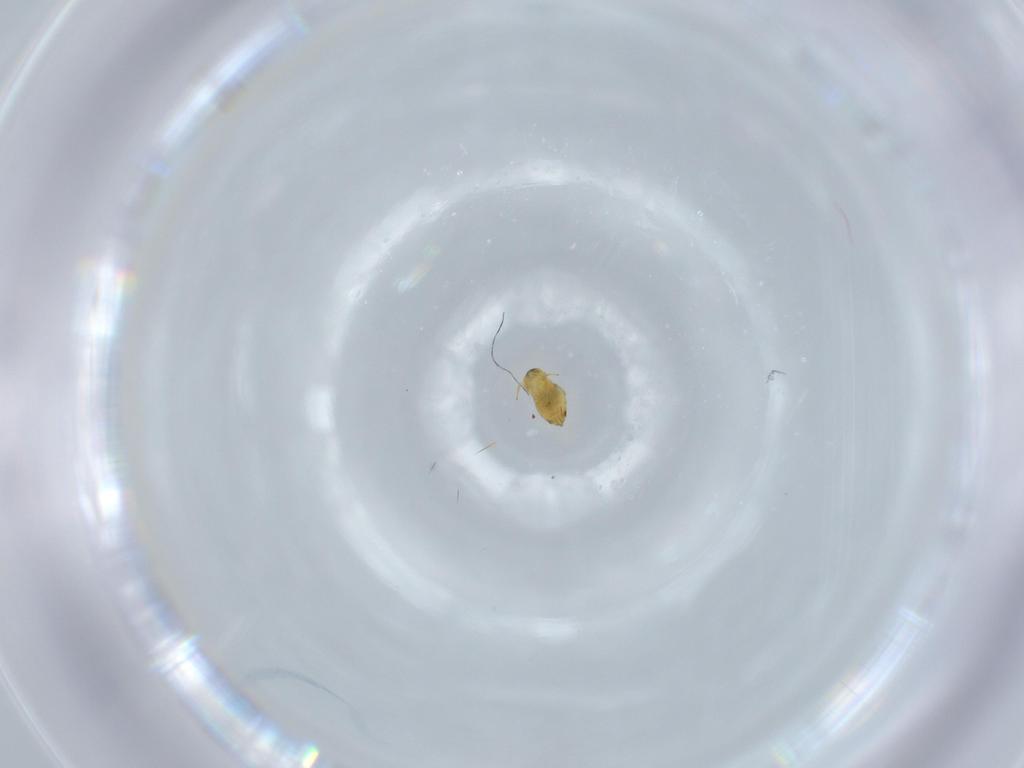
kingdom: Animalia
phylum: Arthropoda
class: Insecta
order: Hymenoptera
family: Signiphoridae
